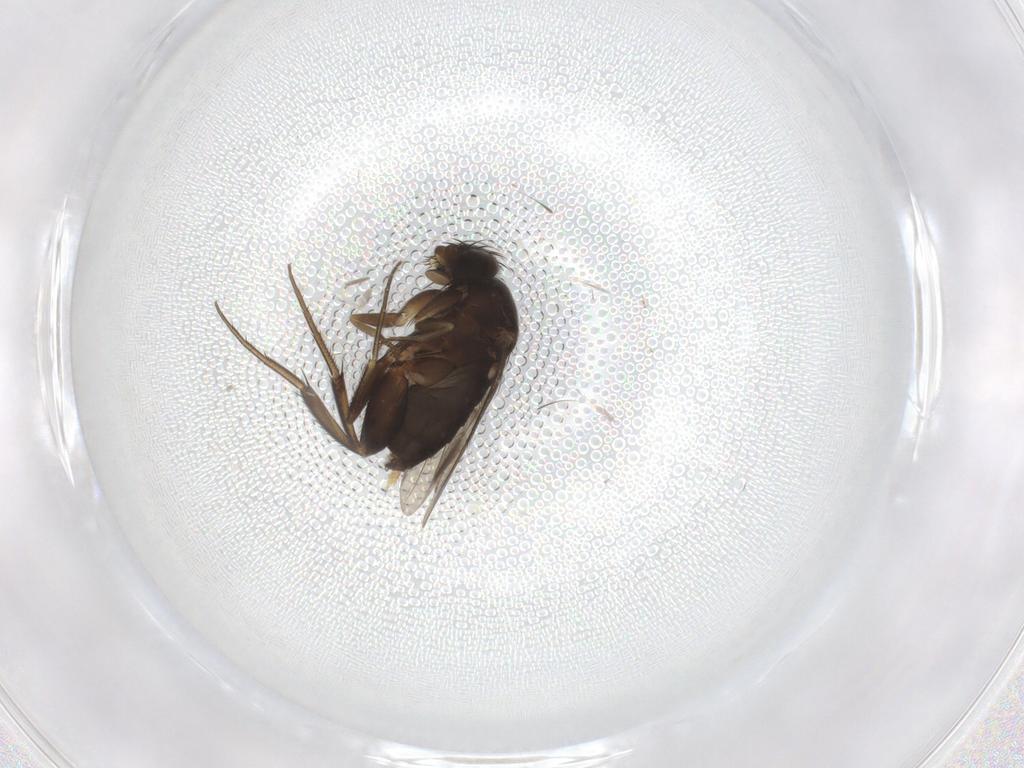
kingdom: Animalia
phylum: Arthropoda
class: Insecta
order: Diptera
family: Phoridae
